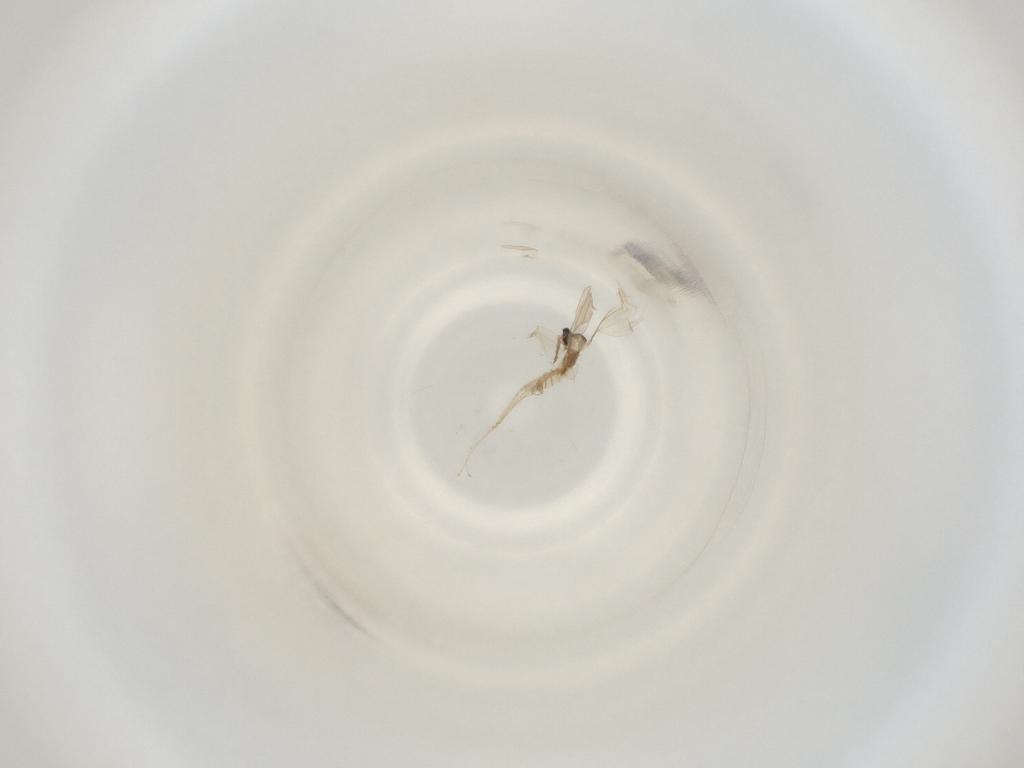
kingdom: Animalia
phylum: Arthropoda
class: Insecta
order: Diptera
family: Cecidomyiidae
